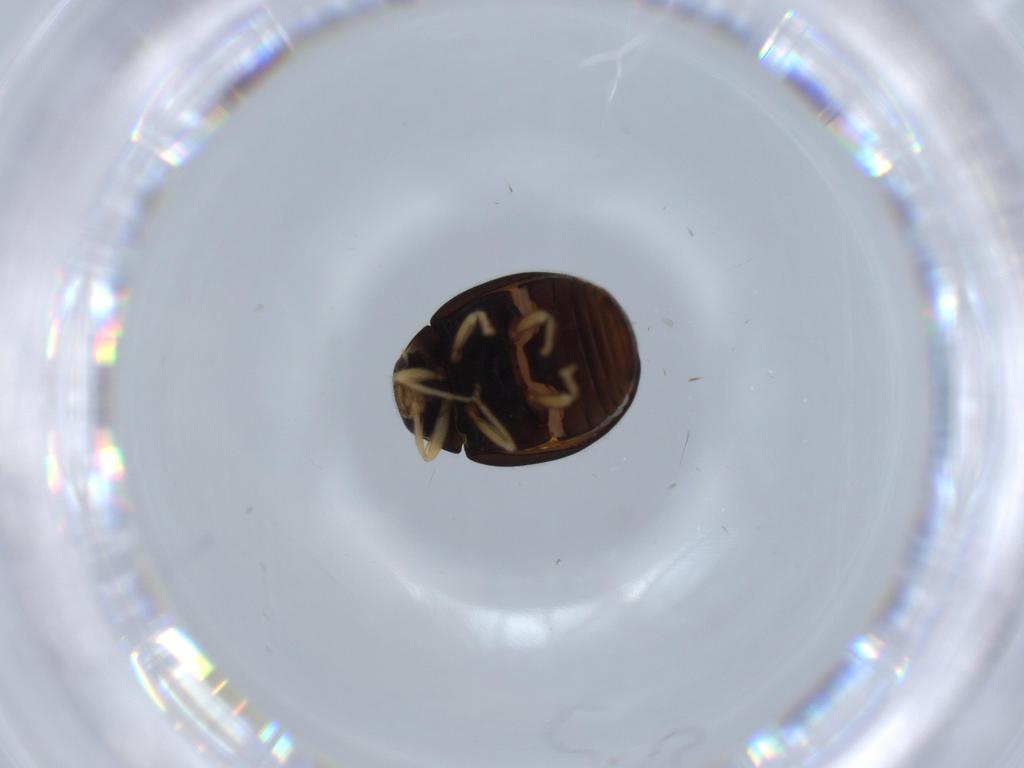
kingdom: Animalia
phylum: Arthropoda
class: Insecta
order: Coleoptera
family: Coccinellidae
